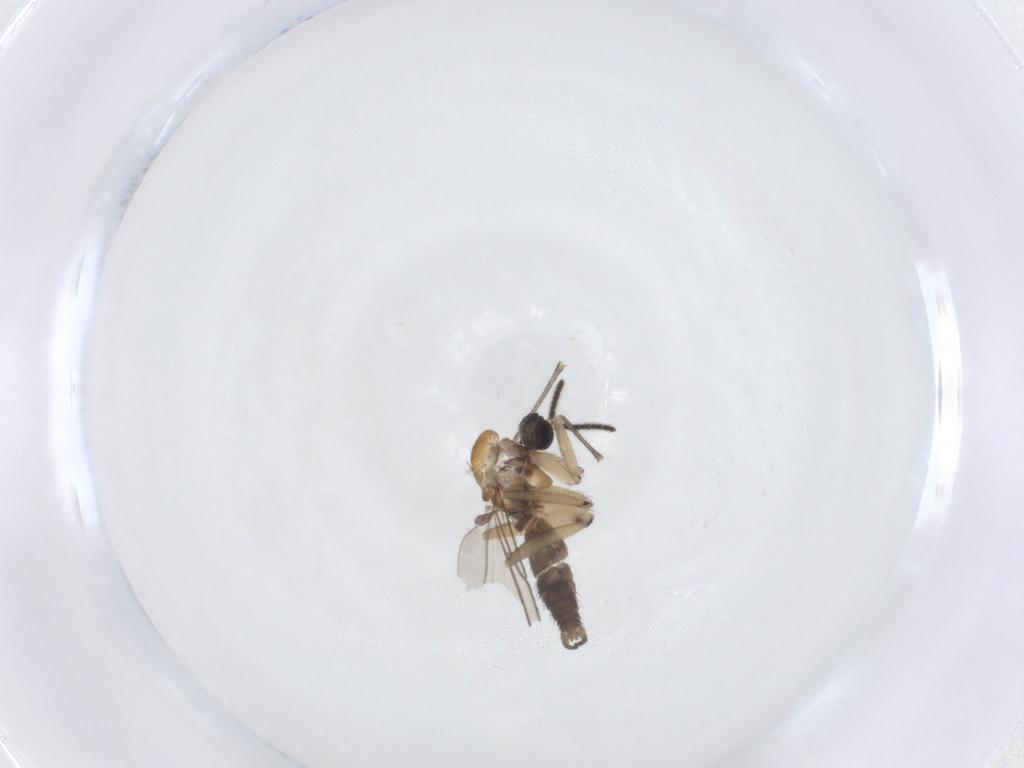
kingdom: Animalia
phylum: Arthropoda
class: Insecta
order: Diptera
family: Sciaridae
